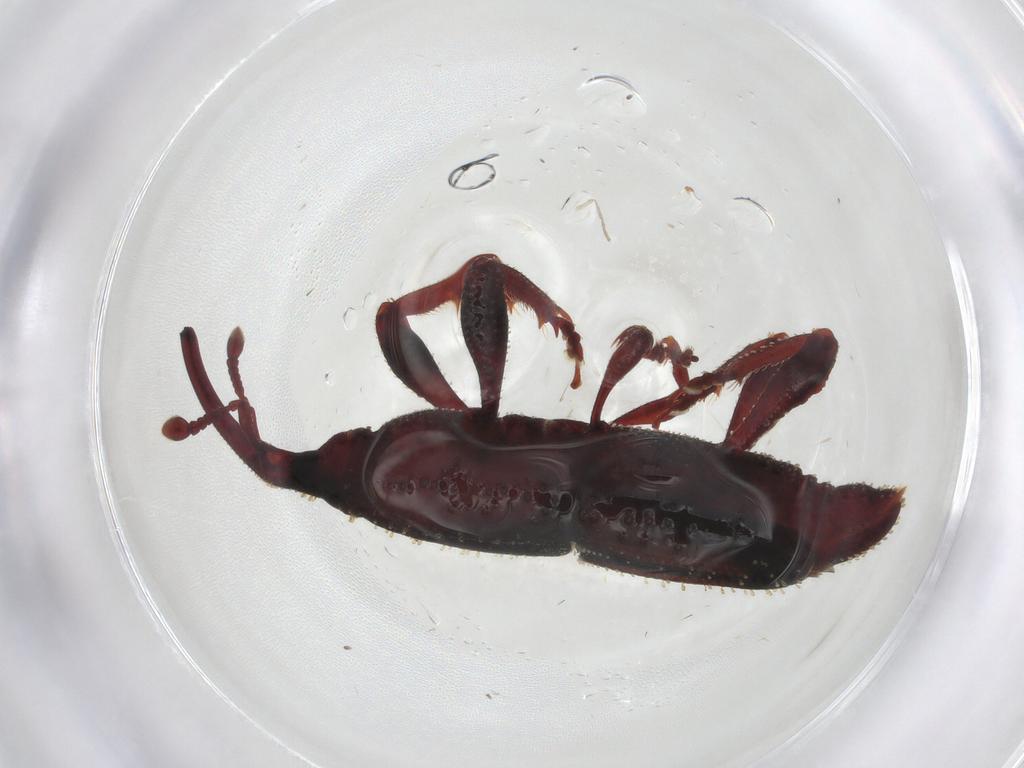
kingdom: Animalia
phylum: Arthropoda
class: Insecta
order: Coleoptera
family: Curculionidae
